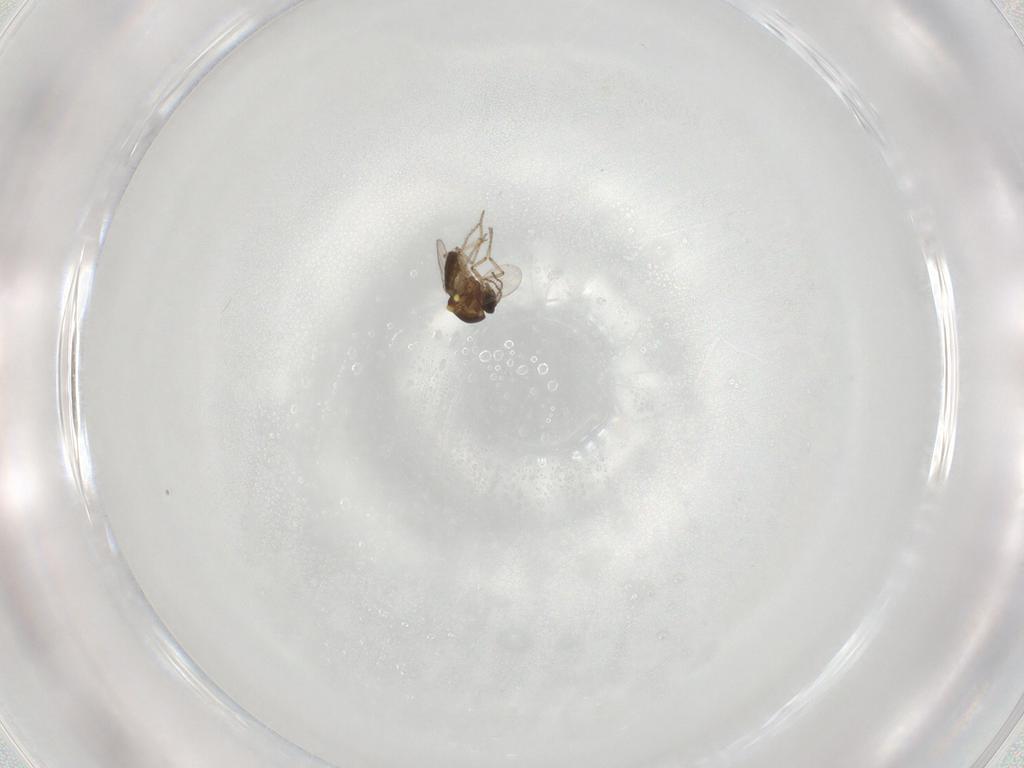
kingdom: Animalia
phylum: Arthropoda
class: Insecta
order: Diptera
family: Ceratopogonidae
